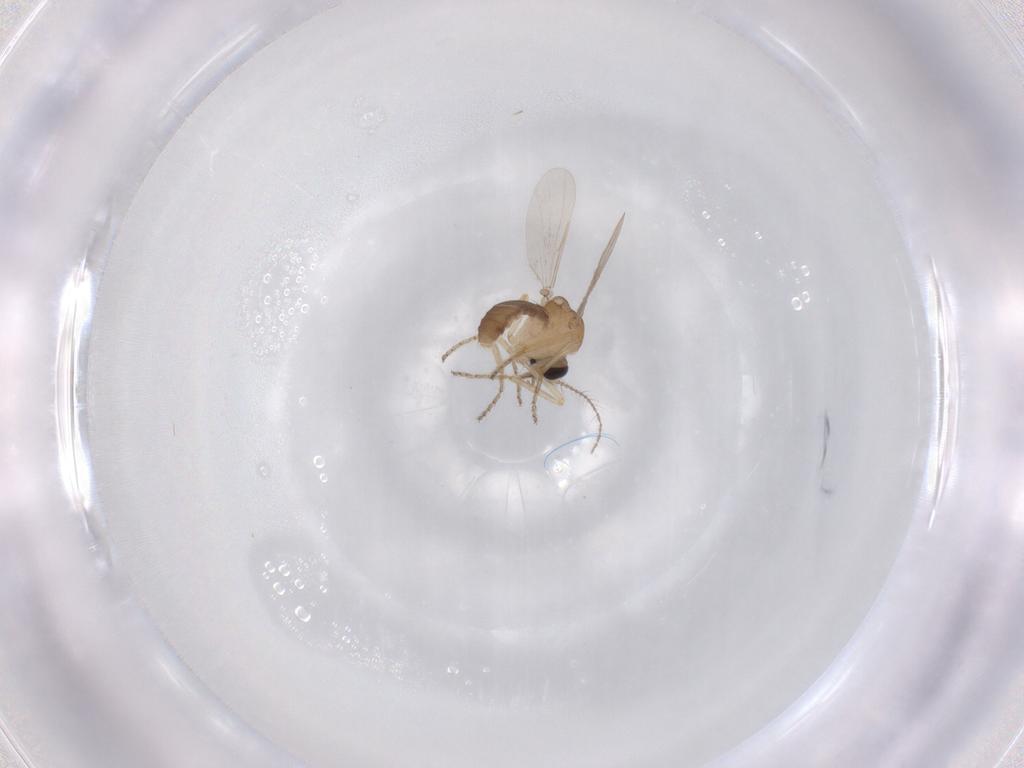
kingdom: Animalia
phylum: Arthropoda
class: Insecta
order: Diptera
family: Ceratopogonidae
